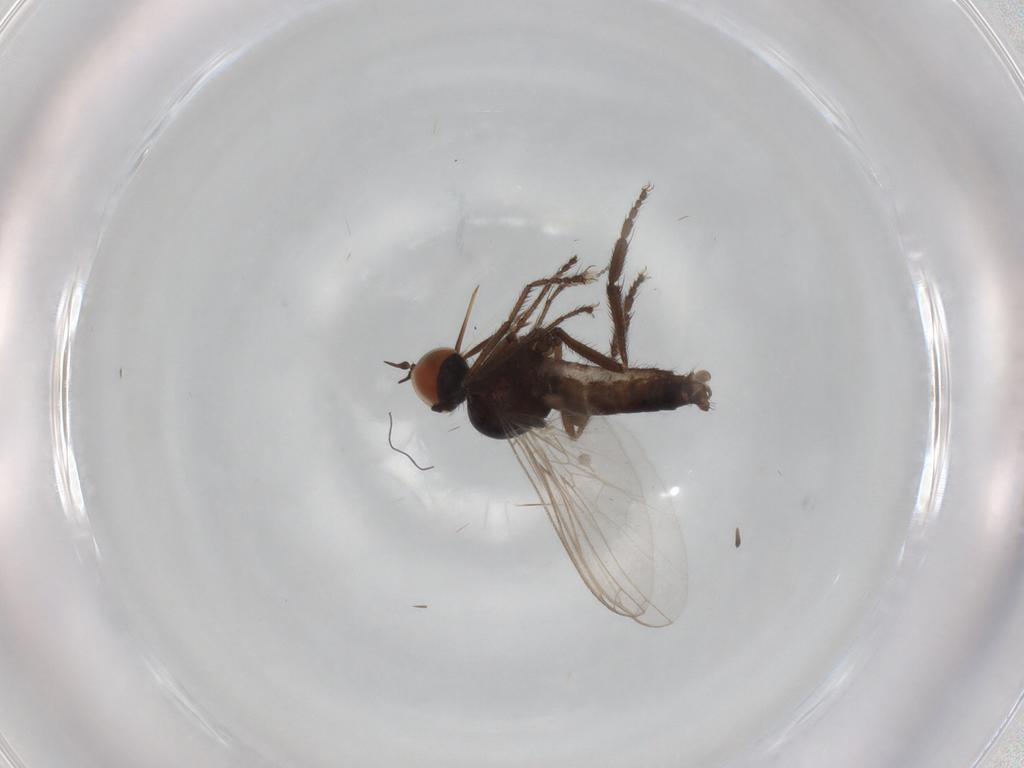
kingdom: Animalia
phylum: Arthropoda
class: Insecta
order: Diptera
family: Empididae
